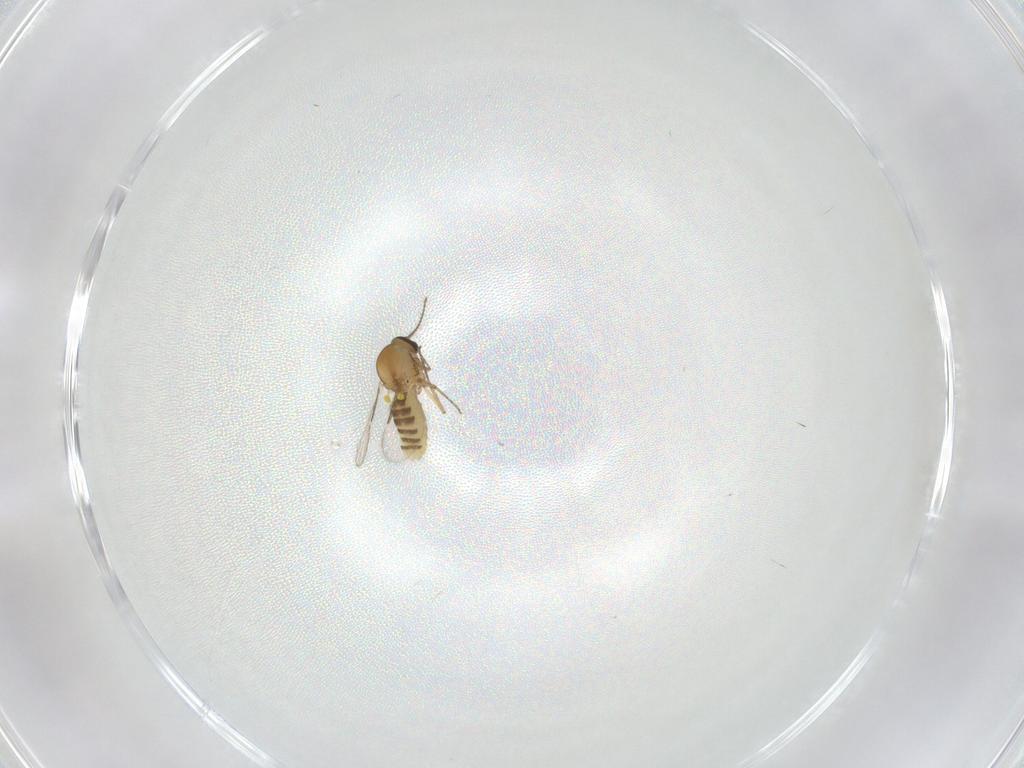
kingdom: Animalia
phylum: Arthropoda
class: Insecta
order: Diptera
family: Ceratopogonidae
